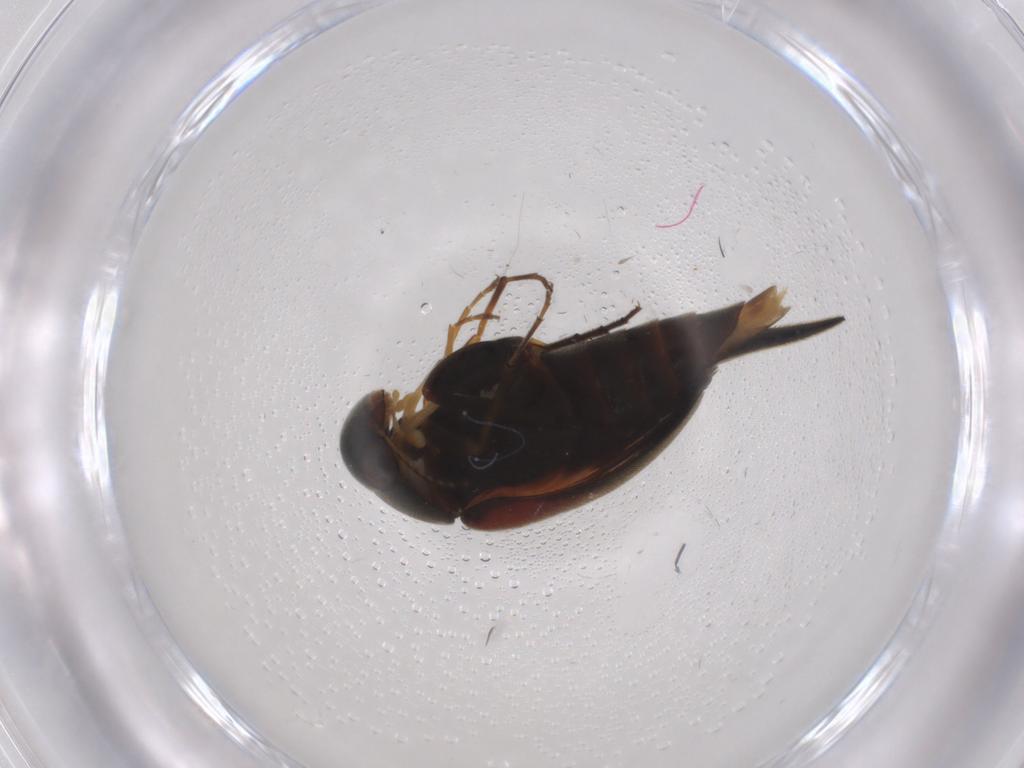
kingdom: Animalia
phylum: Arthropoda
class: Insecta
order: Coleoptera
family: Mordellidae
